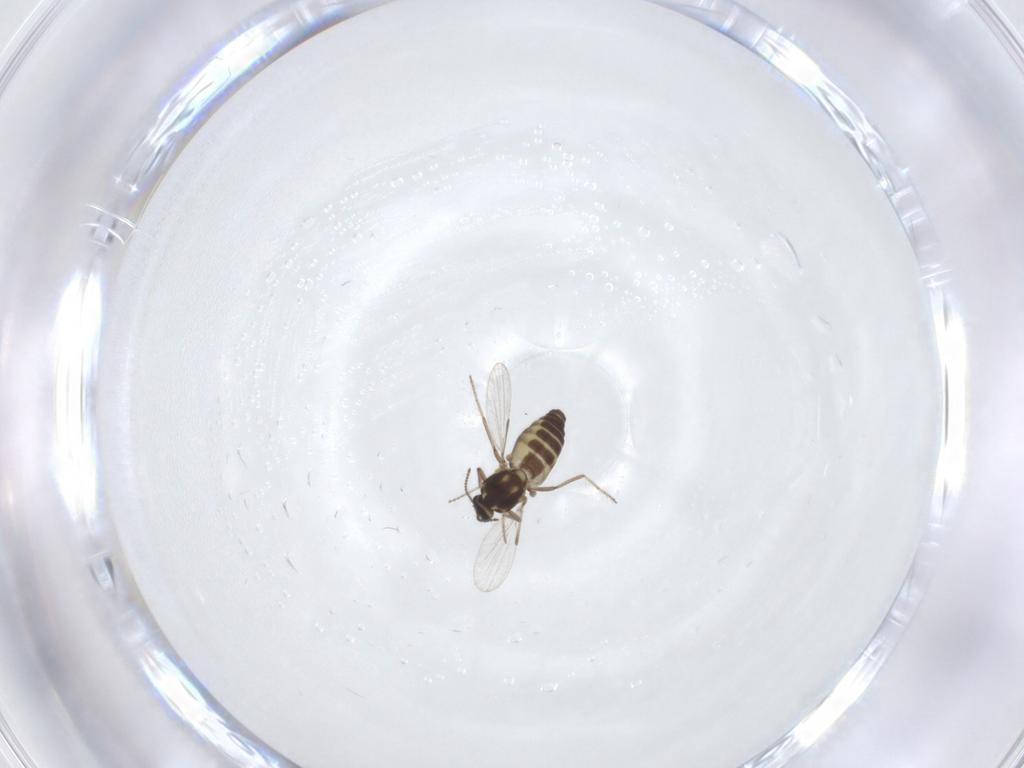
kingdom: Animalia
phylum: Arthropoda
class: Insecta
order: Diptera
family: Ceratopogonidae
